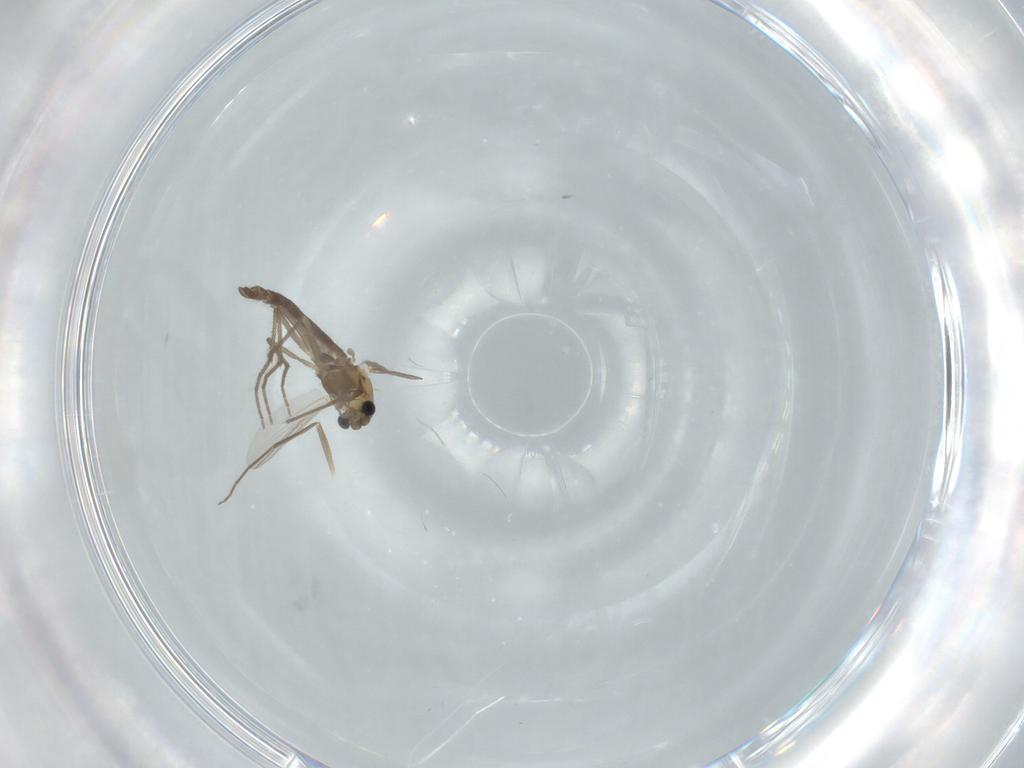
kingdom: Animalia
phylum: Arthropoda
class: Insecta
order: Diptera
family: Chironomidae
